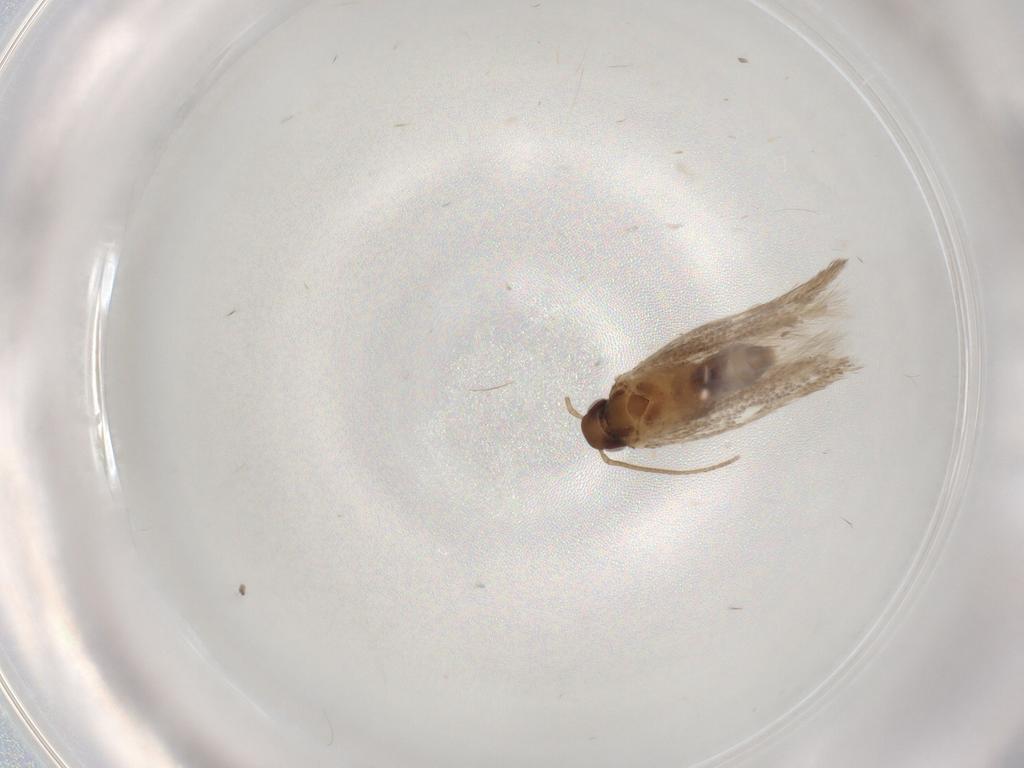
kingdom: Animalia
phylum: Arthropoda
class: Insecta
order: Lepidoptera
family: Gelechiidae
